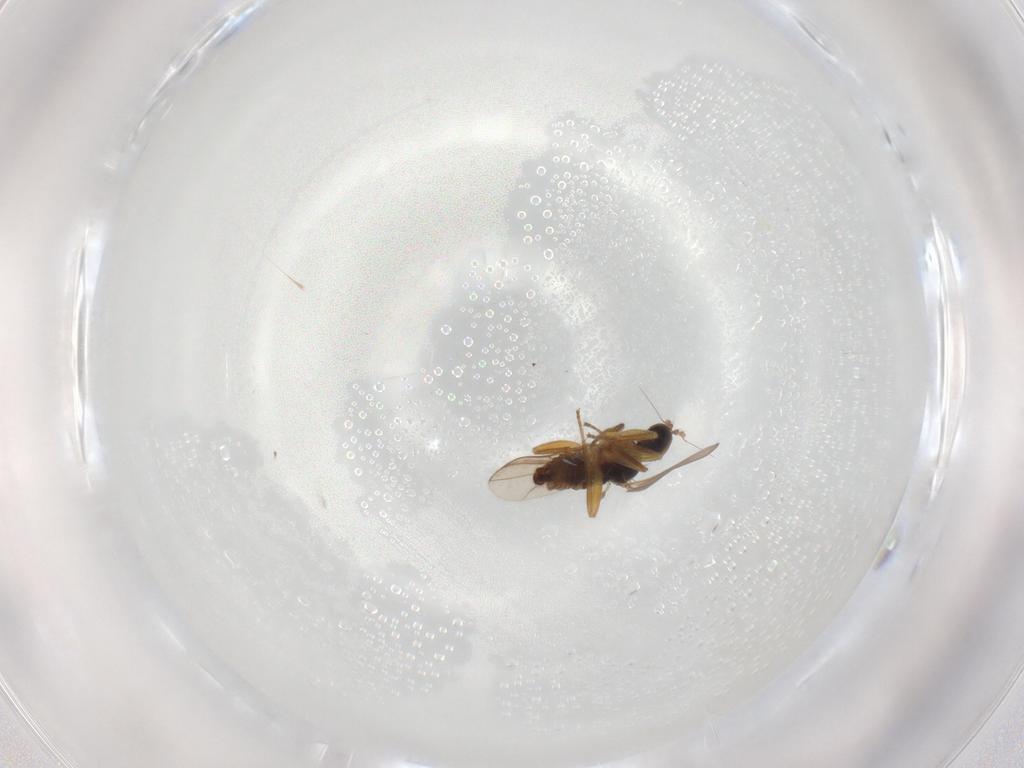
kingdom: Animalia
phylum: Arthropoda
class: Insecta
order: Diptera
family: Hybotidae
